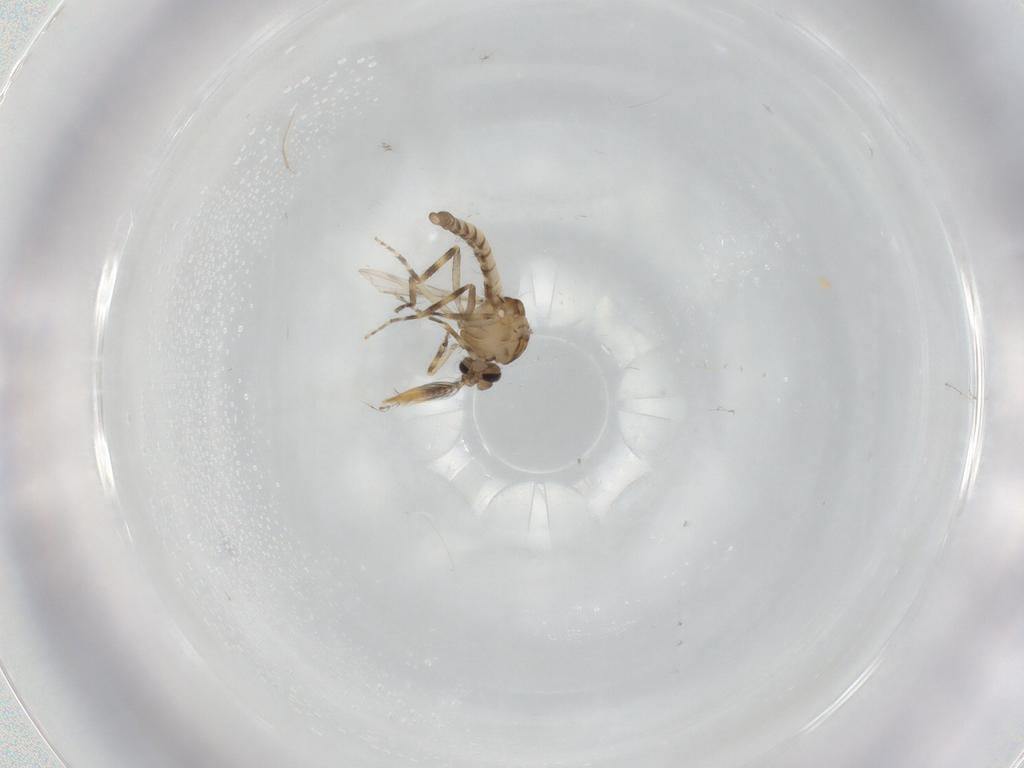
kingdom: Animalia
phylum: Arthropoda
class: Insecta
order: Diptera
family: Ceratopogonidae
